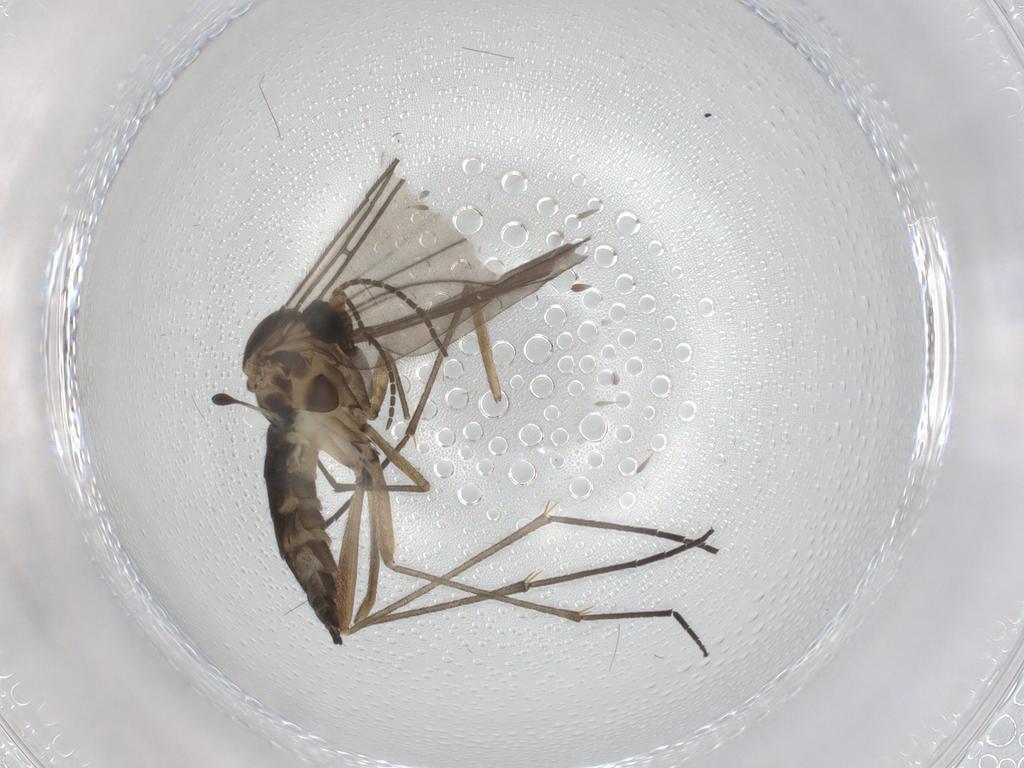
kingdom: Animalia
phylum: Arthropoda
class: Insecta
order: Diptera
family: Sciaridae
